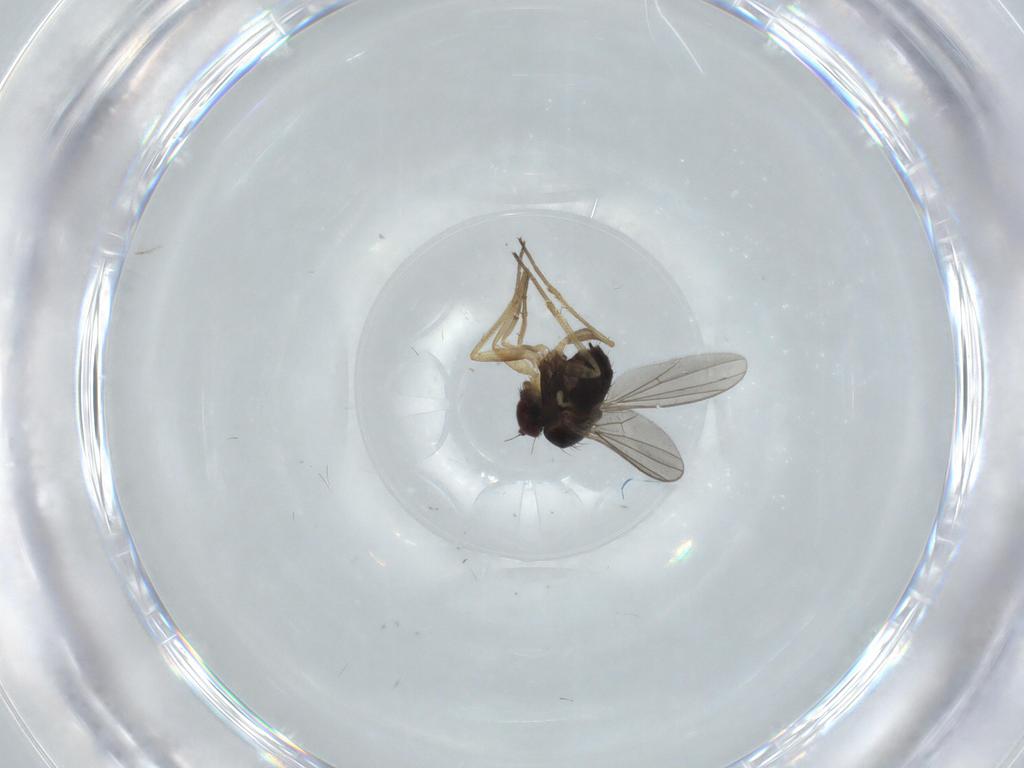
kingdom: Animalia
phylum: Arthropoda
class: Insecta
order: Diptera
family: Dolichopodidae
